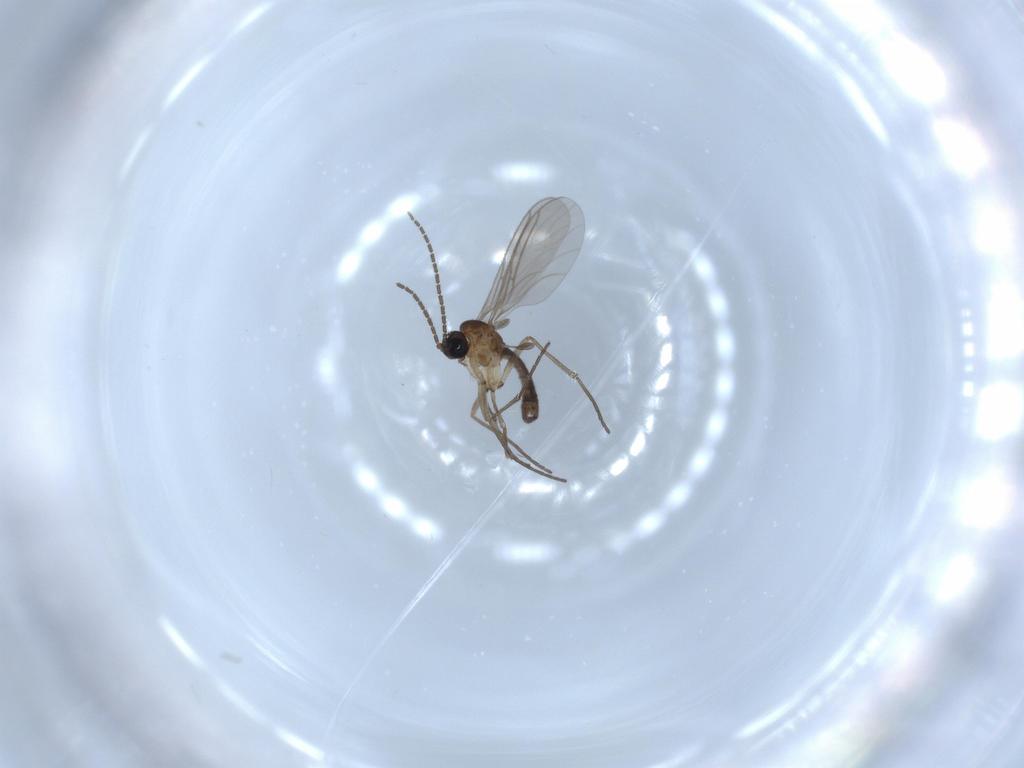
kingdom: Animalia
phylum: Arthropoda
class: Insecta
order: Diptera
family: Sciaridae
